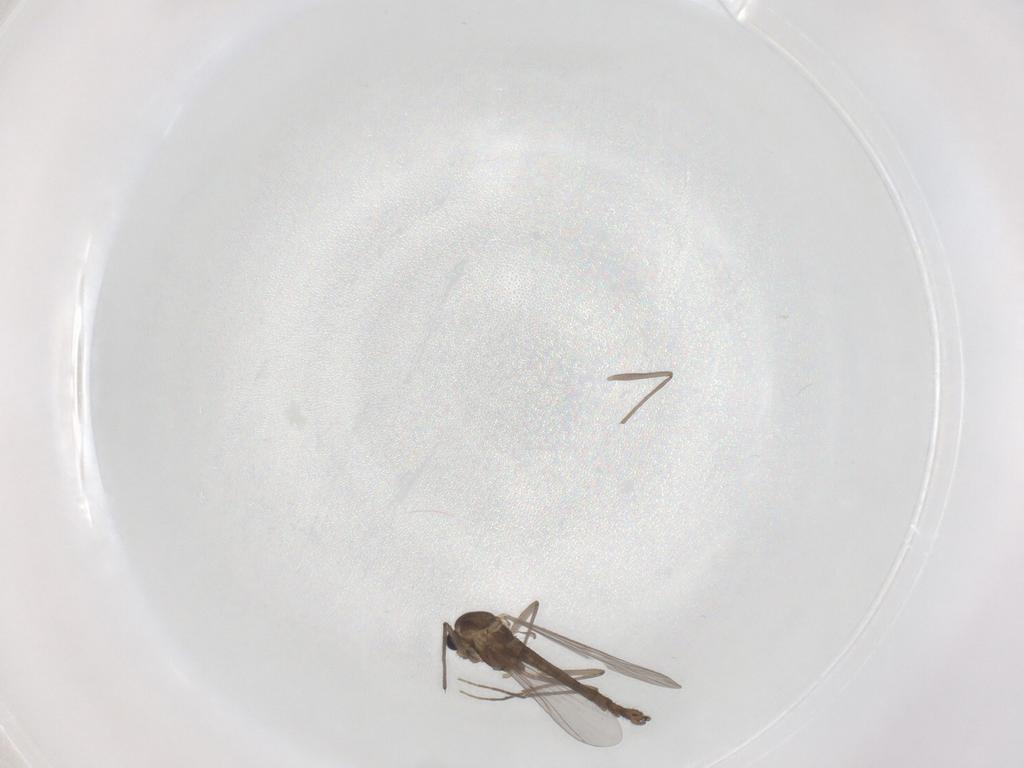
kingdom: Animalia
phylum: Arthropoda
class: Insecta
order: Diptera
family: Chironomidae
